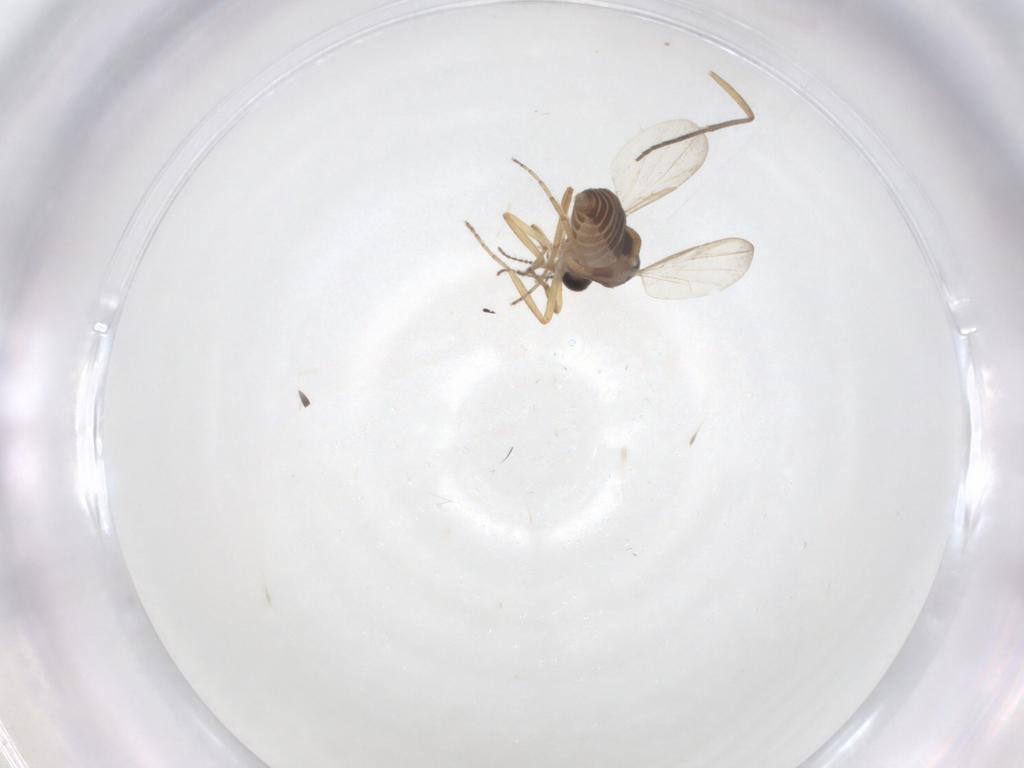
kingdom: Animalia
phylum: Arthropoda
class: Insecta
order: Diptera
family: Ceratopogonidae
